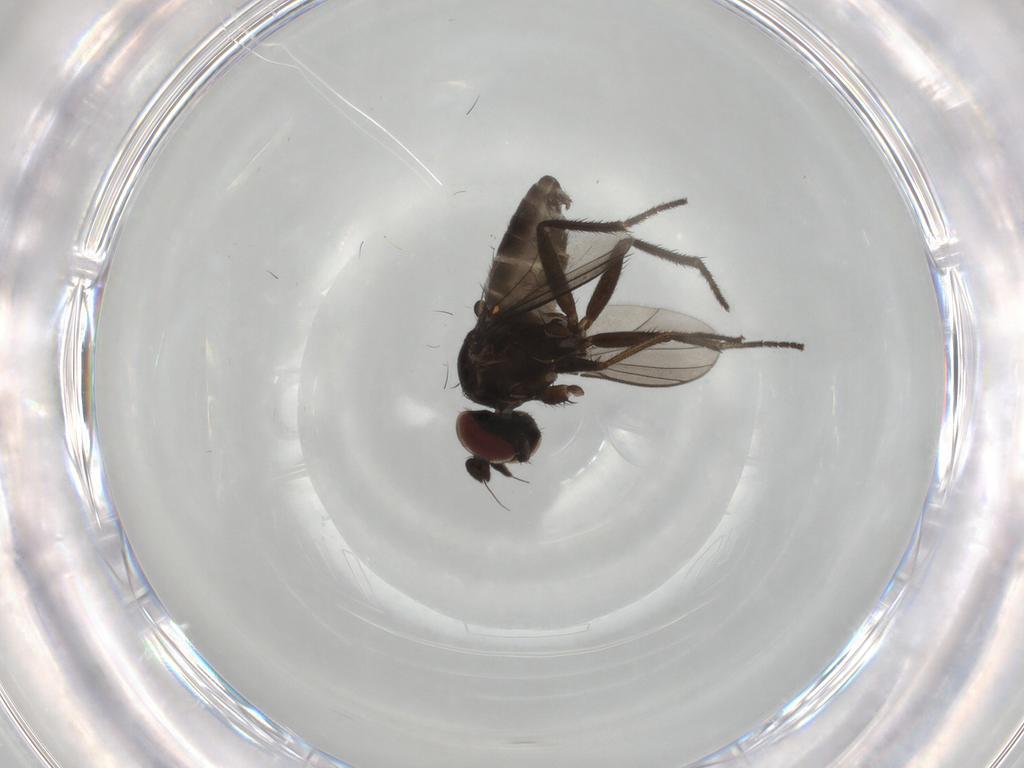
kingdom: Animalia
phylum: Arthropoda
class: Insecta
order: Diptera
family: Dolichopodidae
